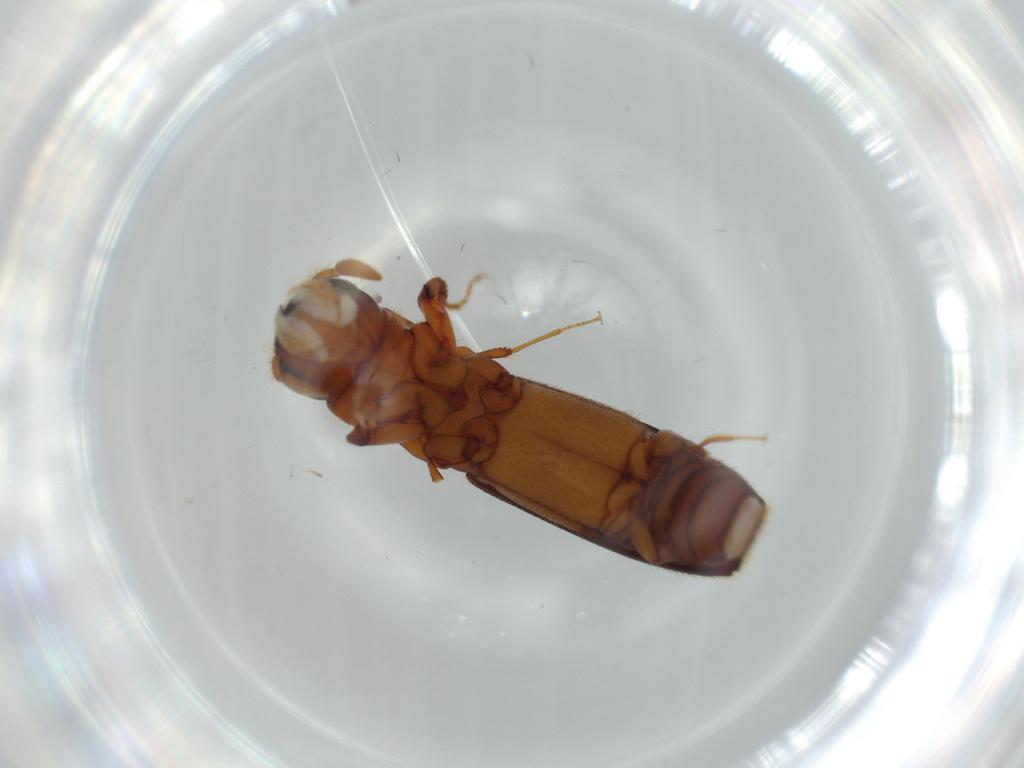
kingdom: Animalia
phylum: Arthropoda
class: Insecta
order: Coleoptera
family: Curculionidae
